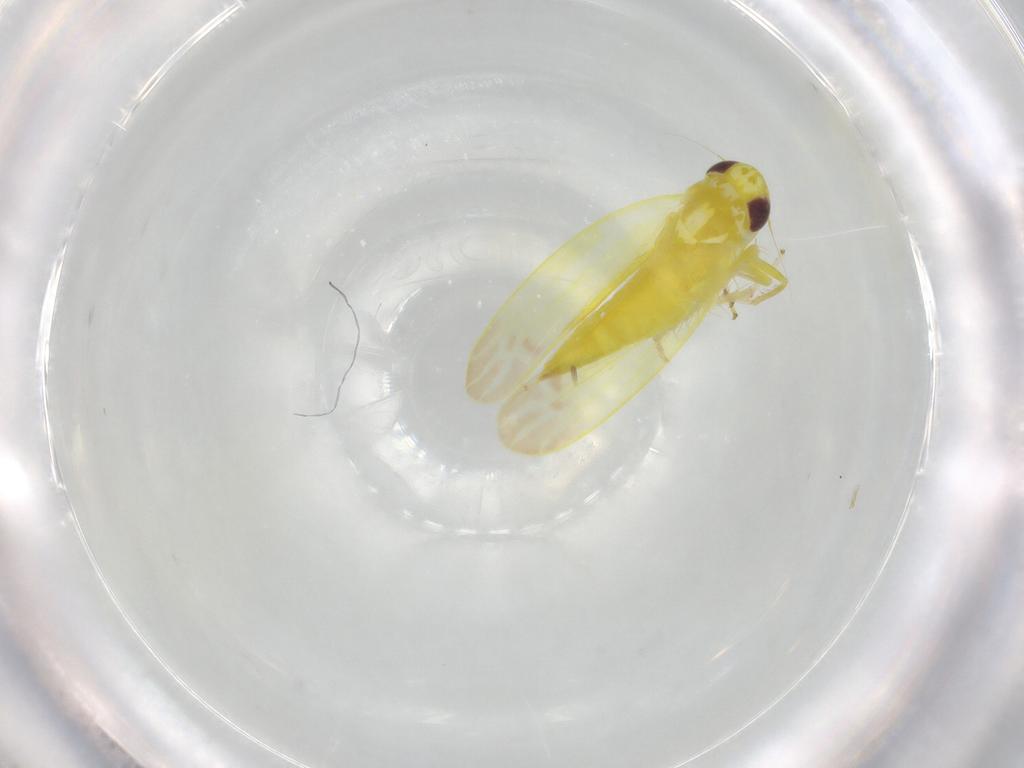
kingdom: Animalia
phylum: Arthropoda
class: Insecta
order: Hemiptera
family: Cicadellidae
